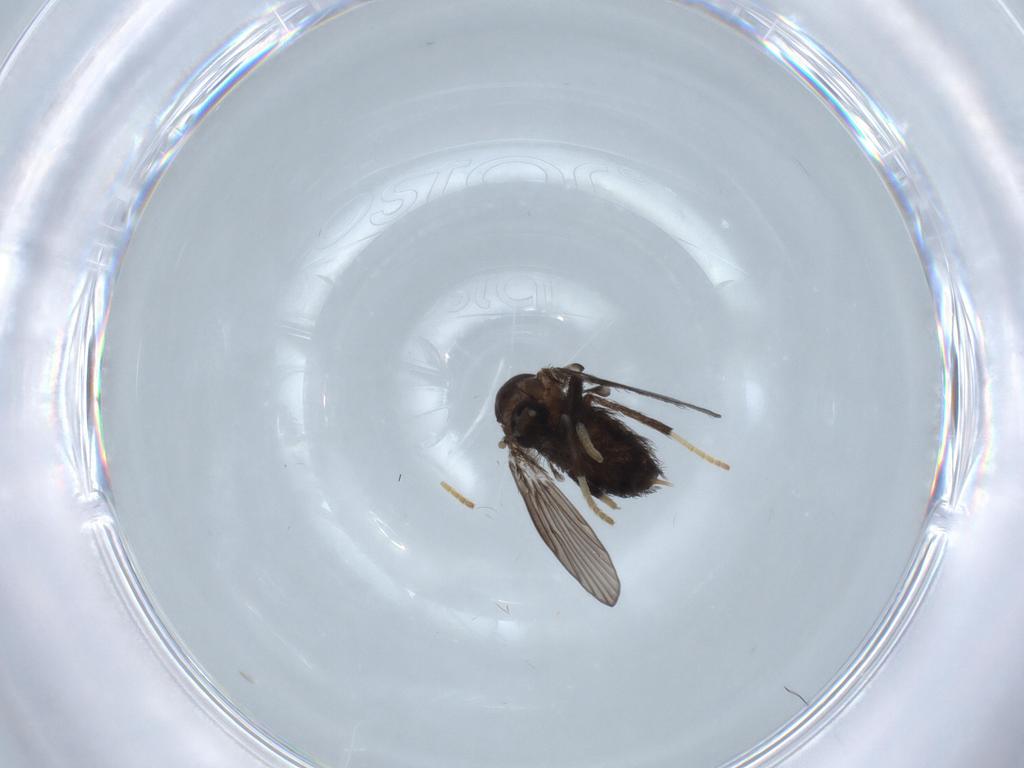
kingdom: Animalia
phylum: Arthropoda
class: Insecta
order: Diptera
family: Psychodidae
